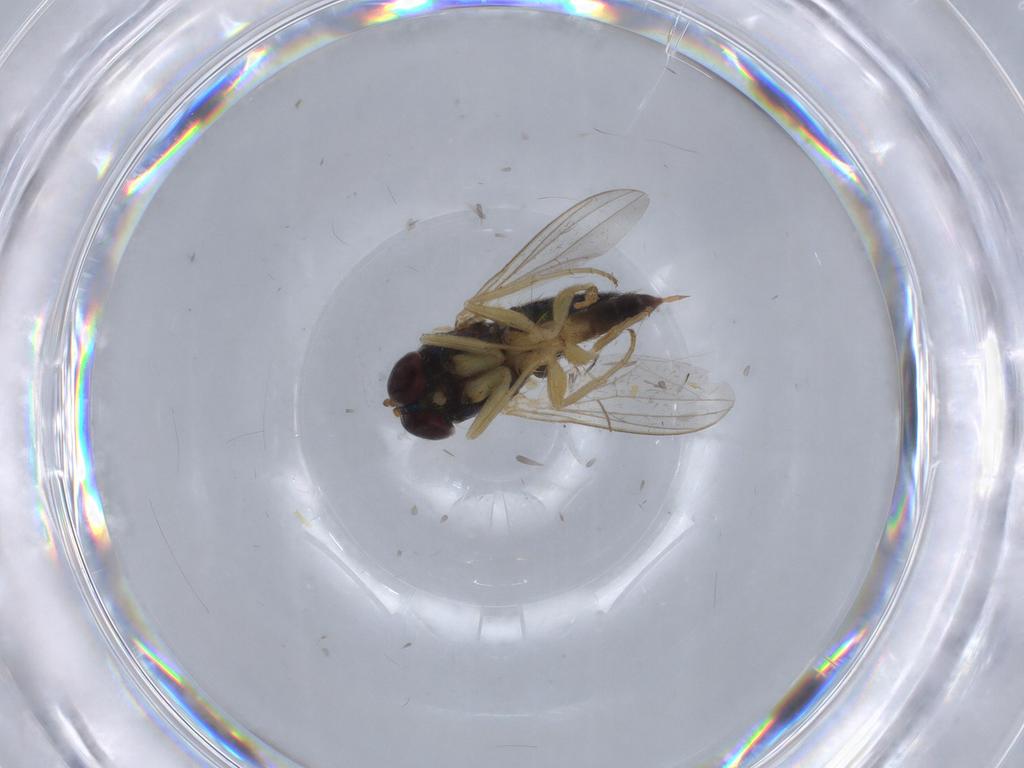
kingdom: Animalia
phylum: Arthropoda
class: Insecta
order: Diptera
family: Dolichopodidae
